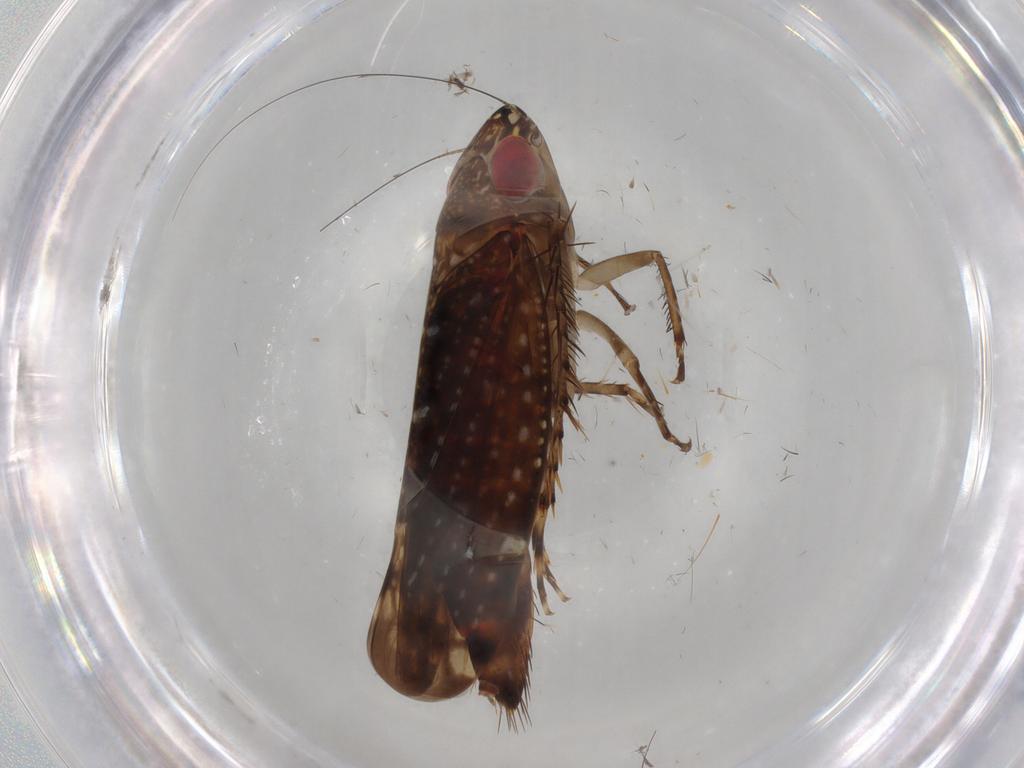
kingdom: Animalia
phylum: Arthropoda
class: Insecta
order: Hemiptera
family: Cicadellidae
